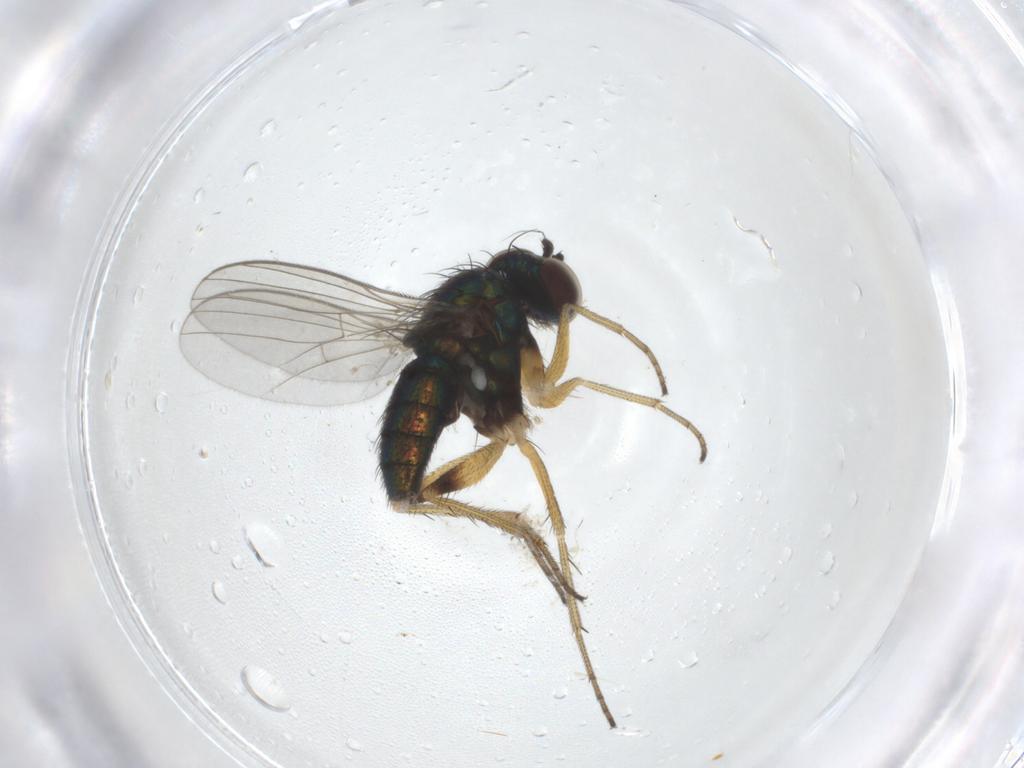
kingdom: Animalia
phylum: Arthropoda
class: Insecta
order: Diptera
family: Dolichopodidae
